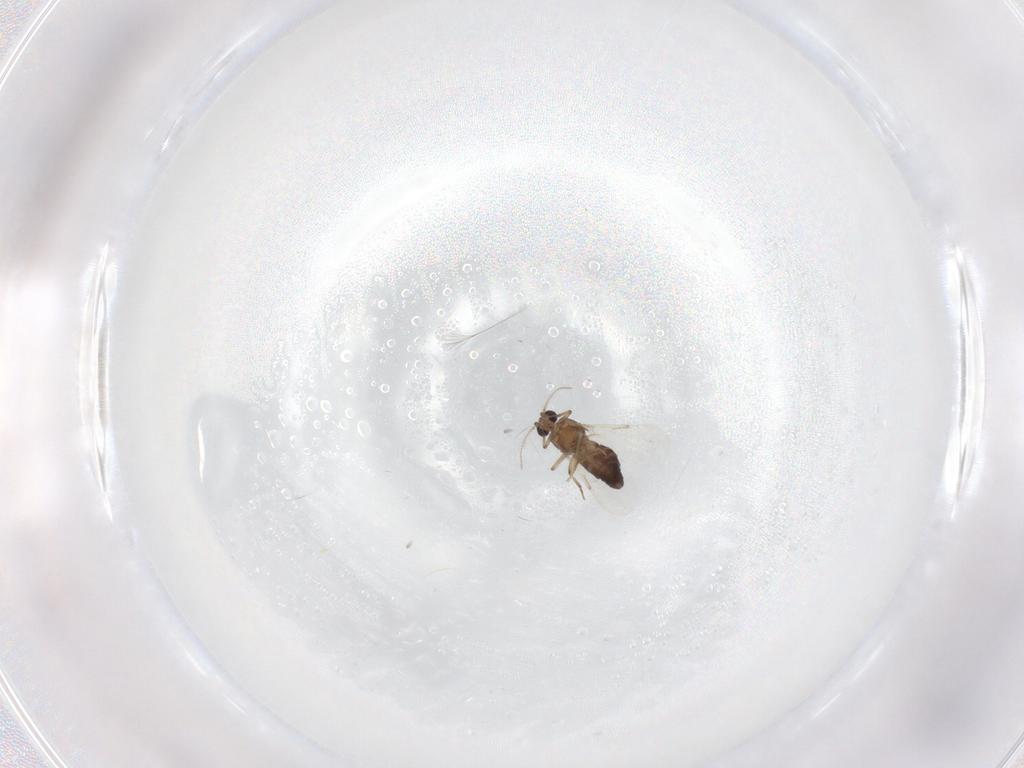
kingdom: Animalia
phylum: Arthropoda
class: Insecta
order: Diptera
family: Ceratopogonidae
